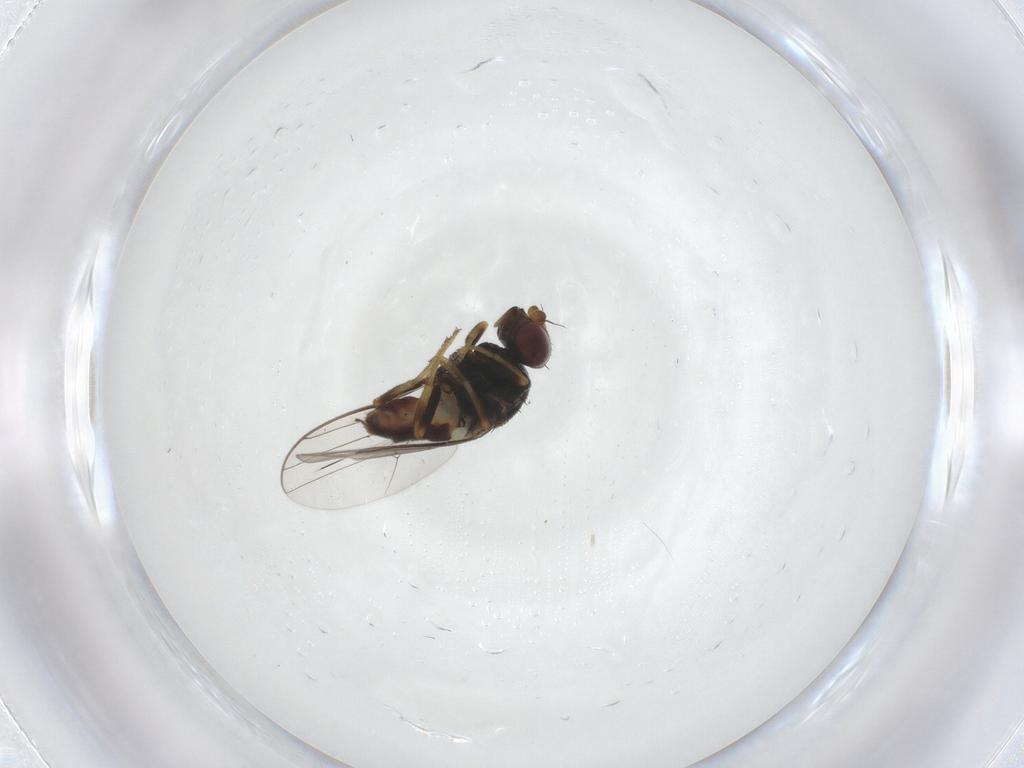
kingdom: Animalia
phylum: Arthropoda
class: Insecta
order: Diptera
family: Chloropidae
